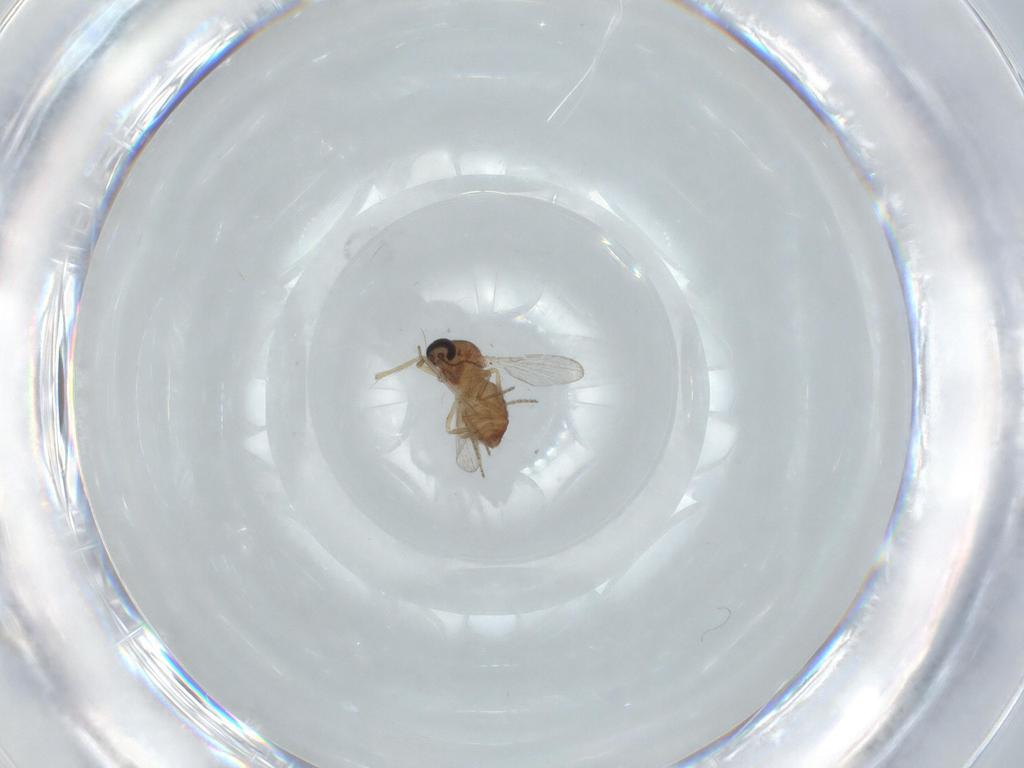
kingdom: Animalia
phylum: Arthropoda
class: Insecta
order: Diptera
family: Ceratopogonidae
